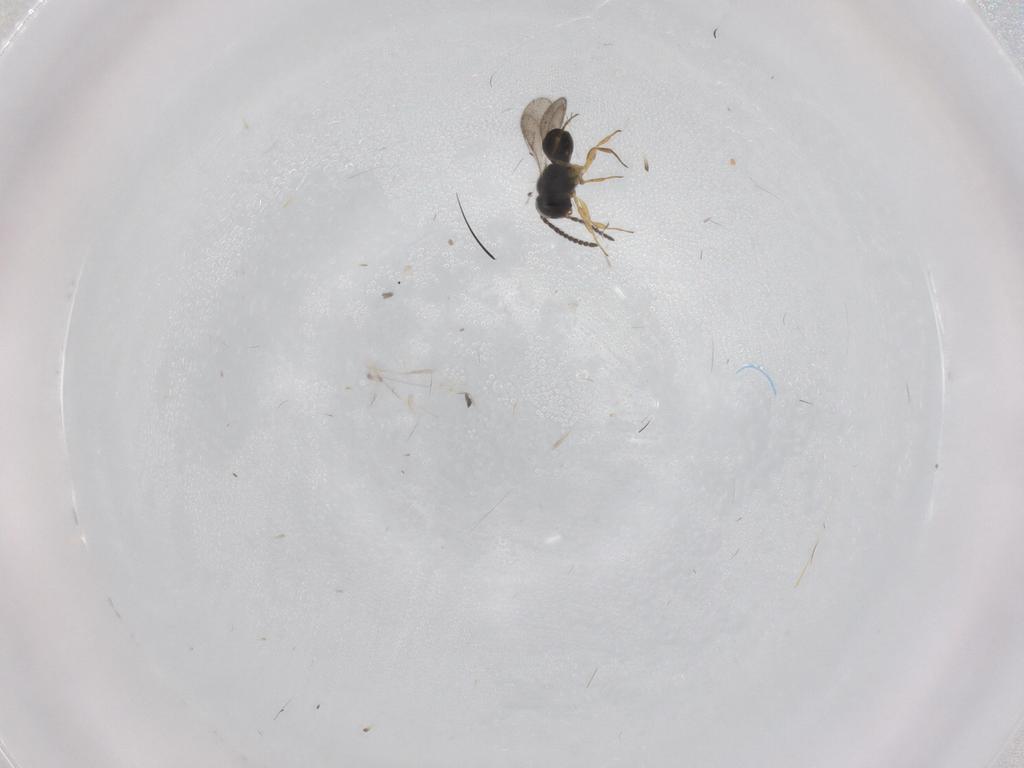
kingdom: Animalia
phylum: Arthropoda
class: Insecta
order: Hymenoptera
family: Scelionidae
